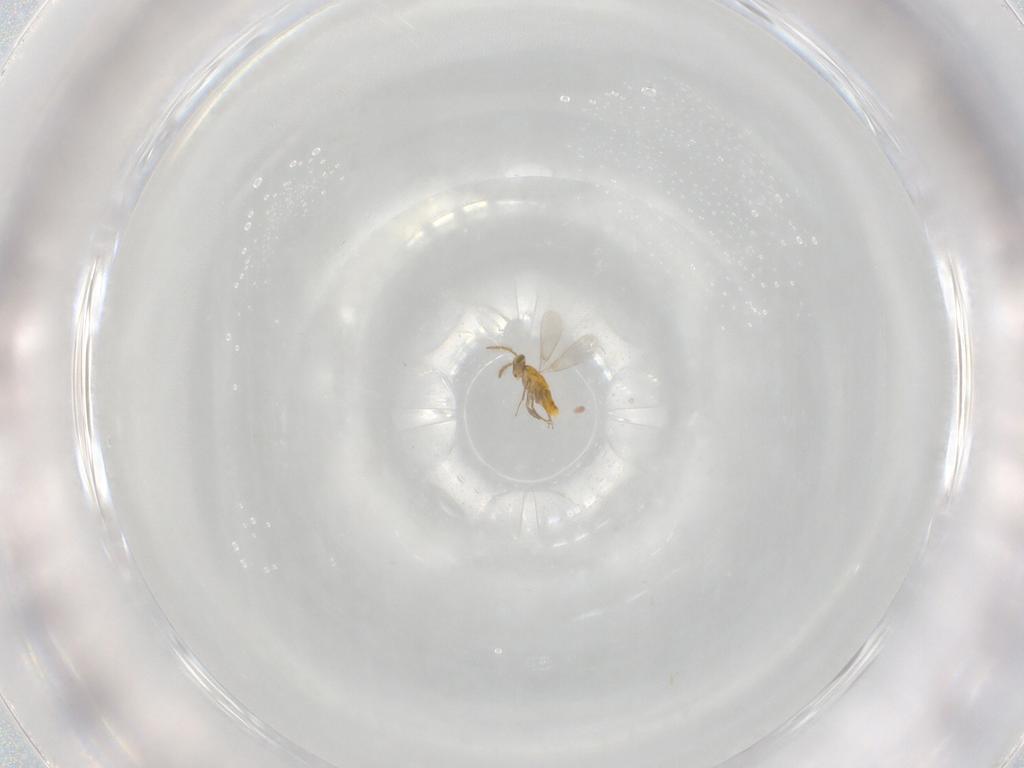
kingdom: Animalia
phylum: Arthropoda
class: Insecta
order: Hymenoptera
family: Aphelinidae
